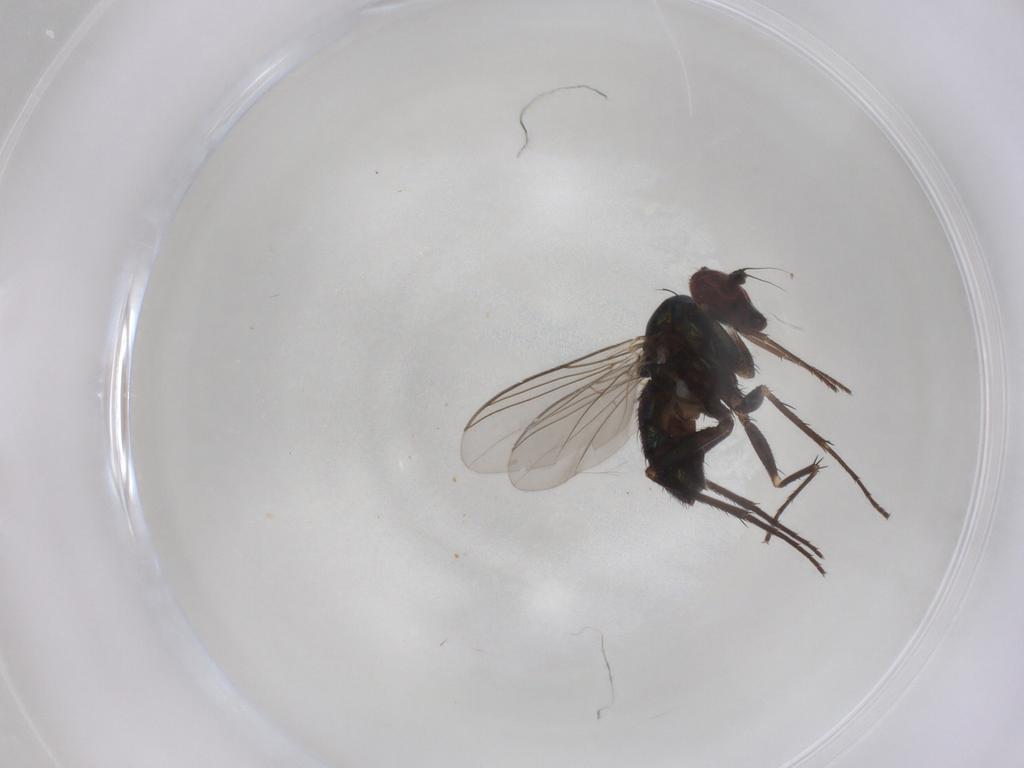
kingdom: Animalia
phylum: Arthropoda
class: Insecta
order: Diptera
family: Dolichopodidae
